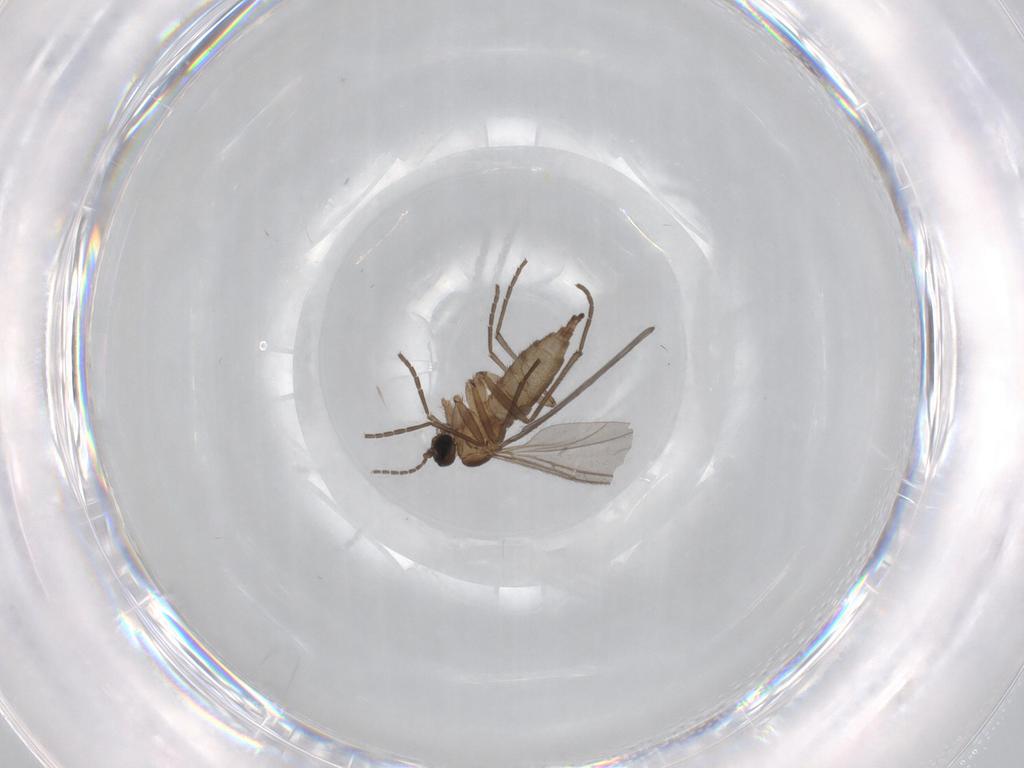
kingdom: Animalia
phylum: Arthropoda
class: Insecta
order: Diptera
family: Sciaridae
